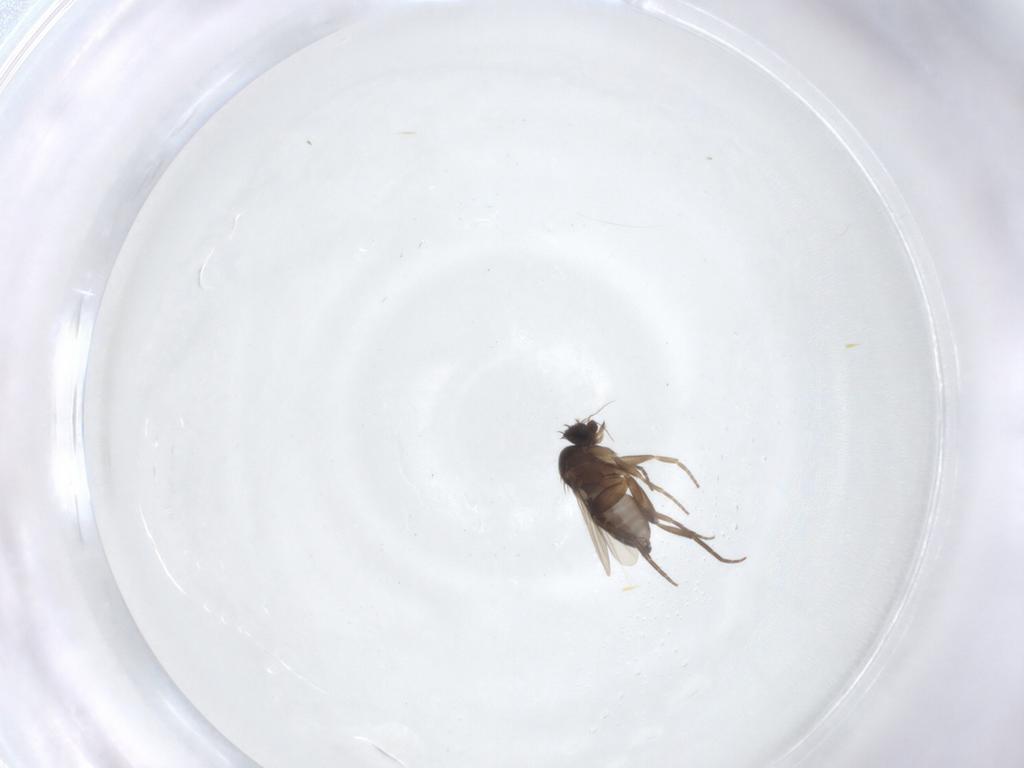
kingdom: Animalia
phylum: Arthropoda
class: Insecta
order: Diptera
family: Phoridae
